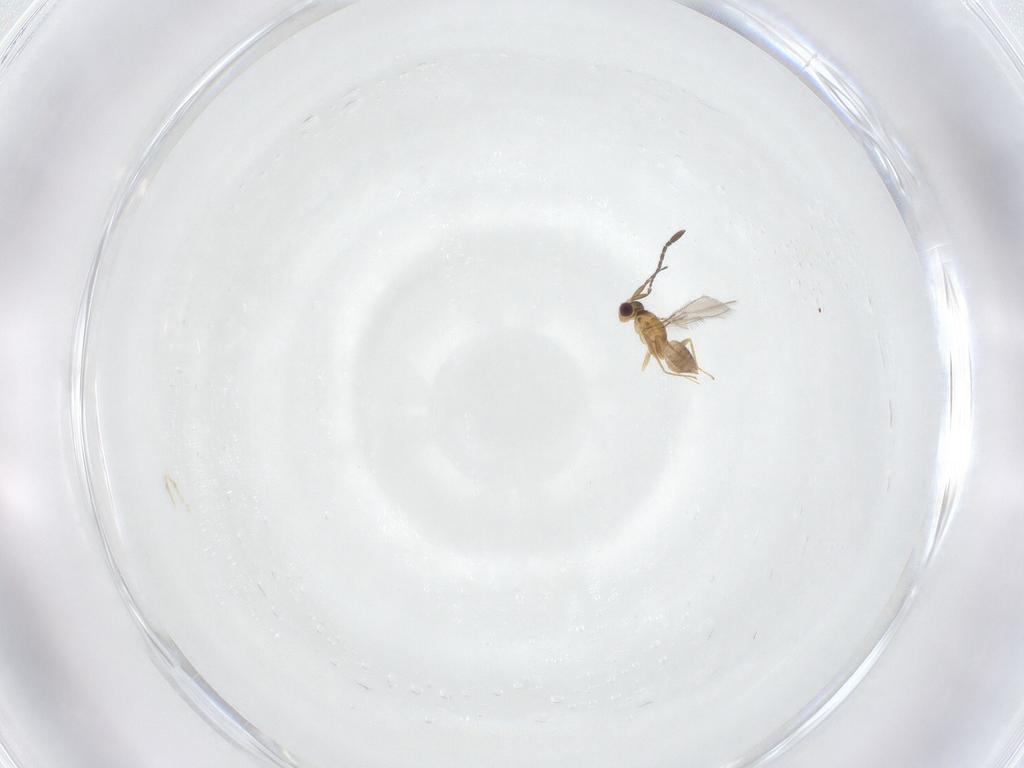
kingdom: Animalia
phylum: Arthropoda
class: Insecta
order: Hymenoptera
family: Mymaridae
